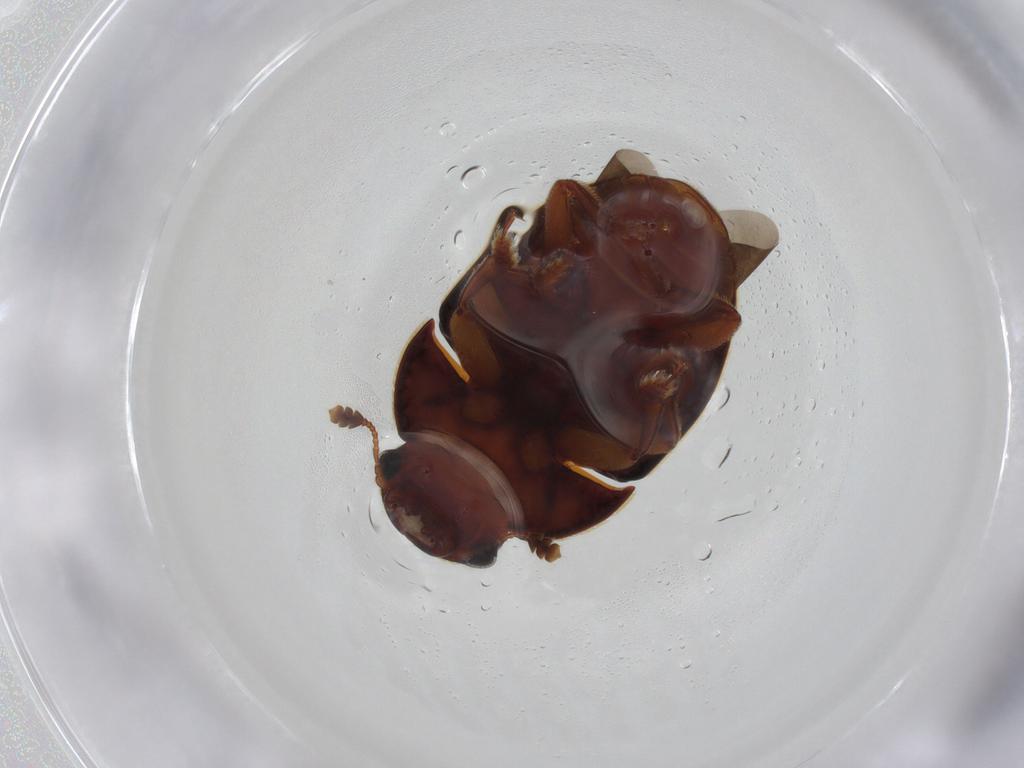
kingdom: Animalia
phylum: Arthropoda
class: Insecta
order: Coleoptera
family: Nitidulidae
